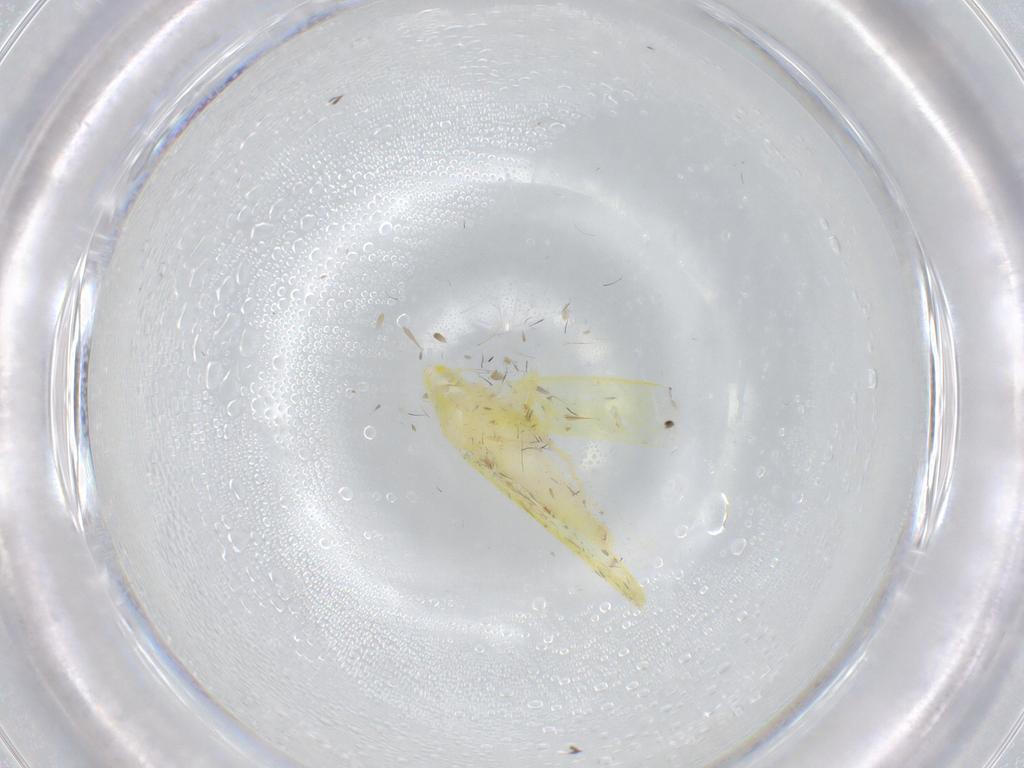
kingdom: Animalia
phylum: Arthropoda
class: Insecta
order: Hemiptera
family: Cicadellidae
